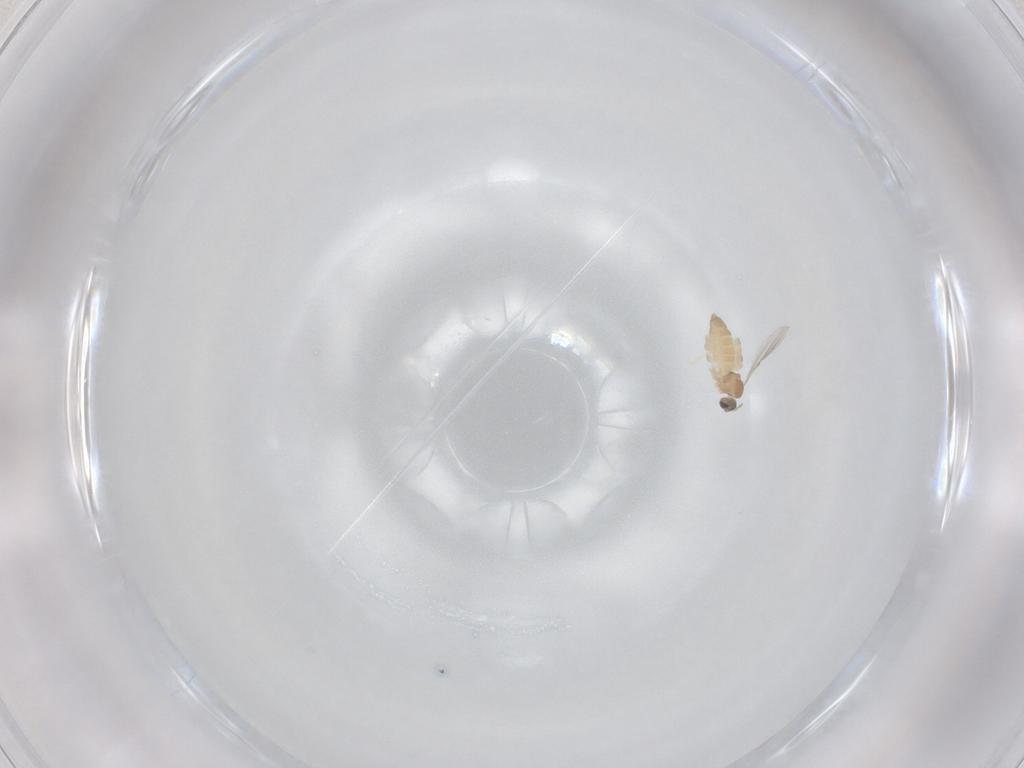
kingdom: Animalia
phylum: Arthropoda
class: Insecta
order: Diptera
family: Cecidomyiidae
